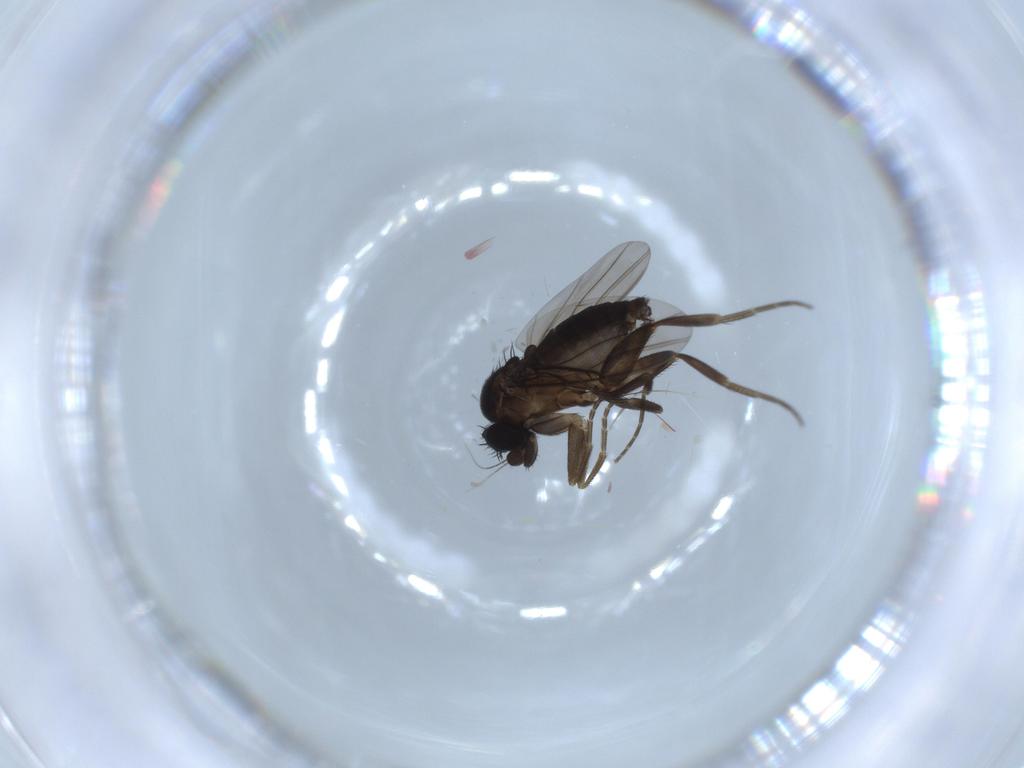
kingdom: Animalia
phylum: Arthropoda
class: Insecta
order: Diptera
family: Phoridae
